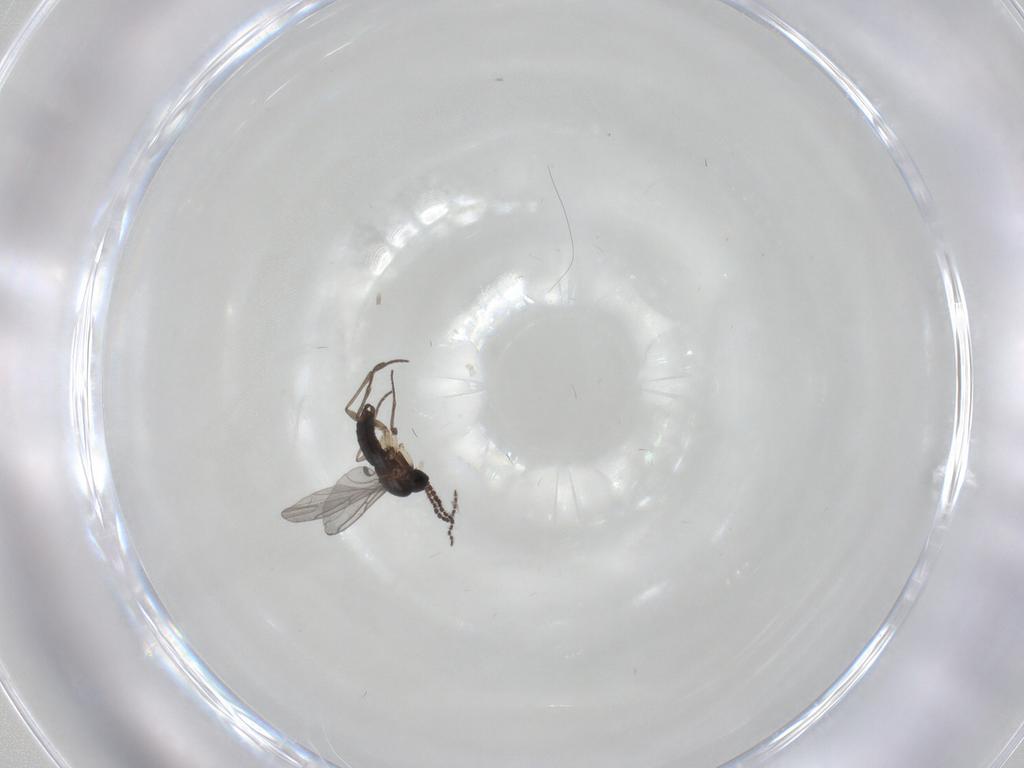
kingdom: Animalia
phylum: Arthropoda
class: Insecta
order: Diptera
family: Sciaridae
